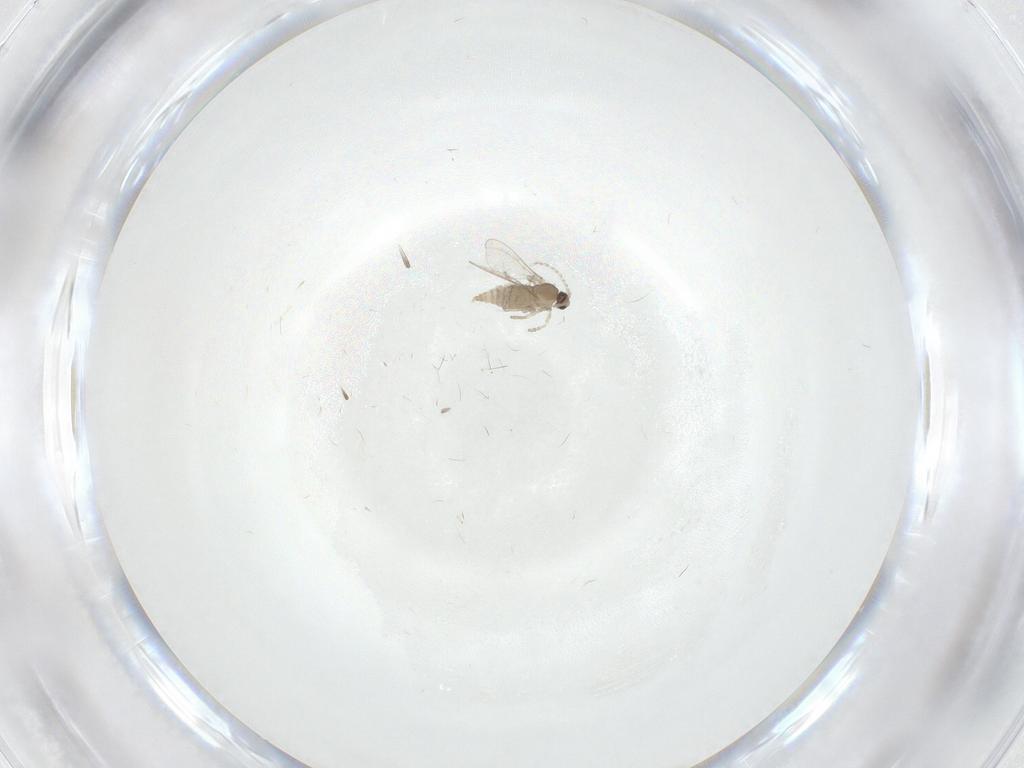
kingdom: Animalia
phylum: Arthropoda
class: Insecta
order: Diptera
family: Cecidomyiidae
